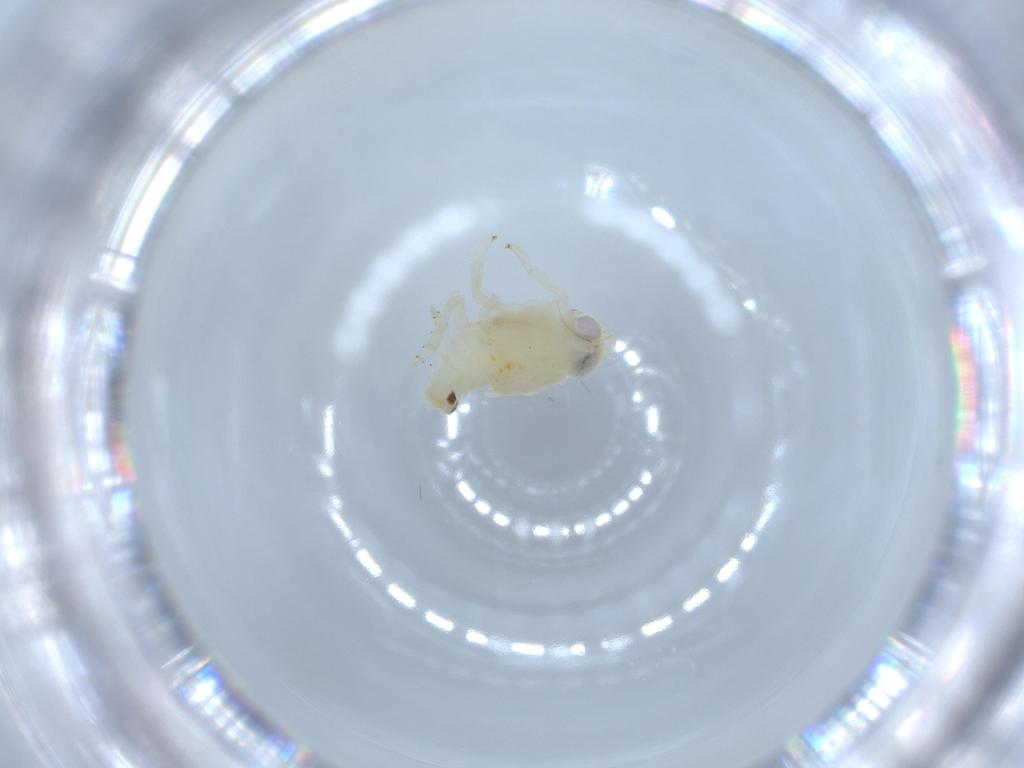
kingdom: Animalia
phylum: Arthropoda
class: Insecta
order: Hemiptera
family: Nogodinidae
